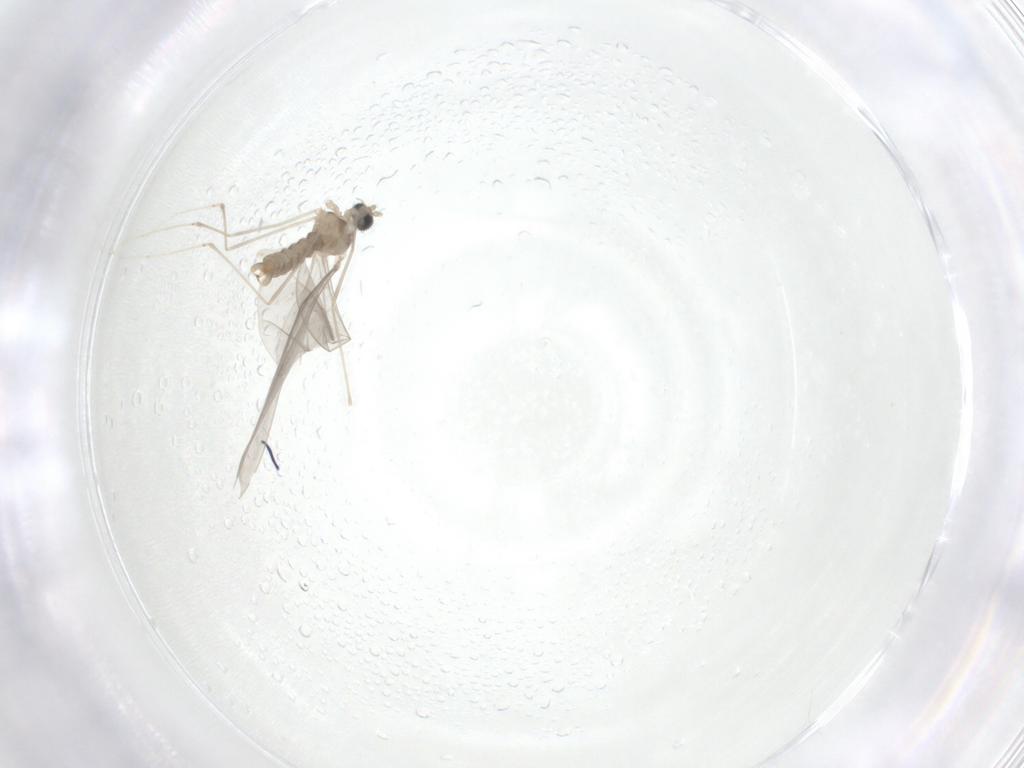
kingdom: Animalia
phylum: Arthropoda
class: Insecta
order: Diptera
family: Cecidomyiidae
